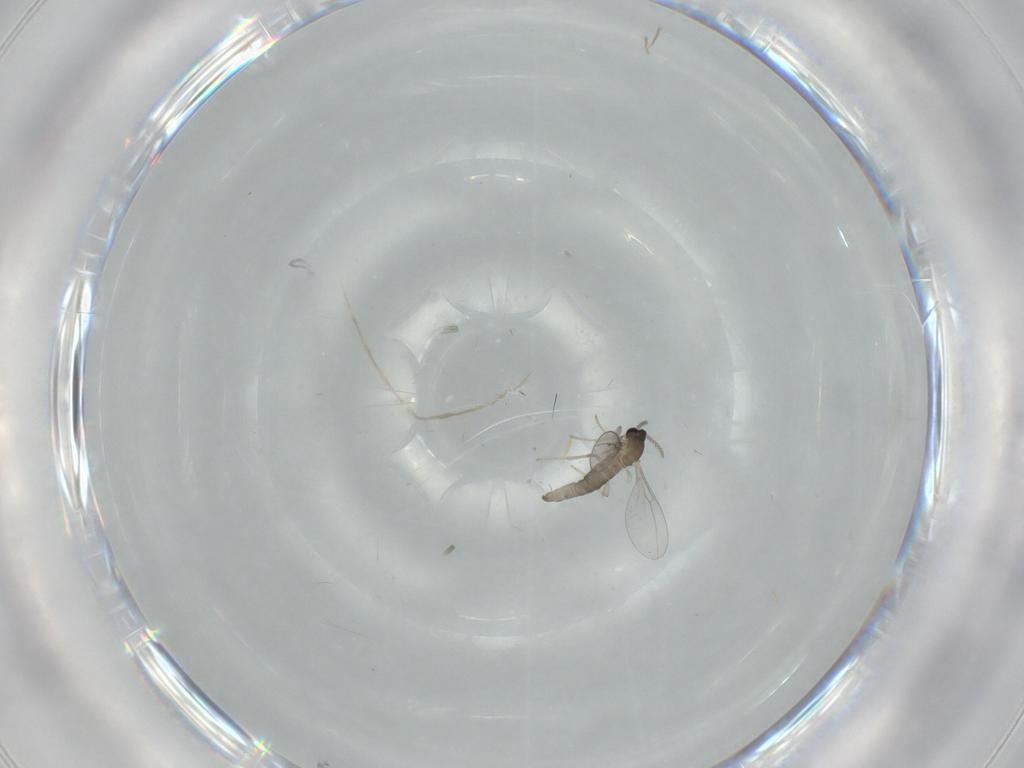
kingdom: Animalia
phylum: Arthropoda
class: Insecta
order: Diptera
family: Cecidomyiidae
